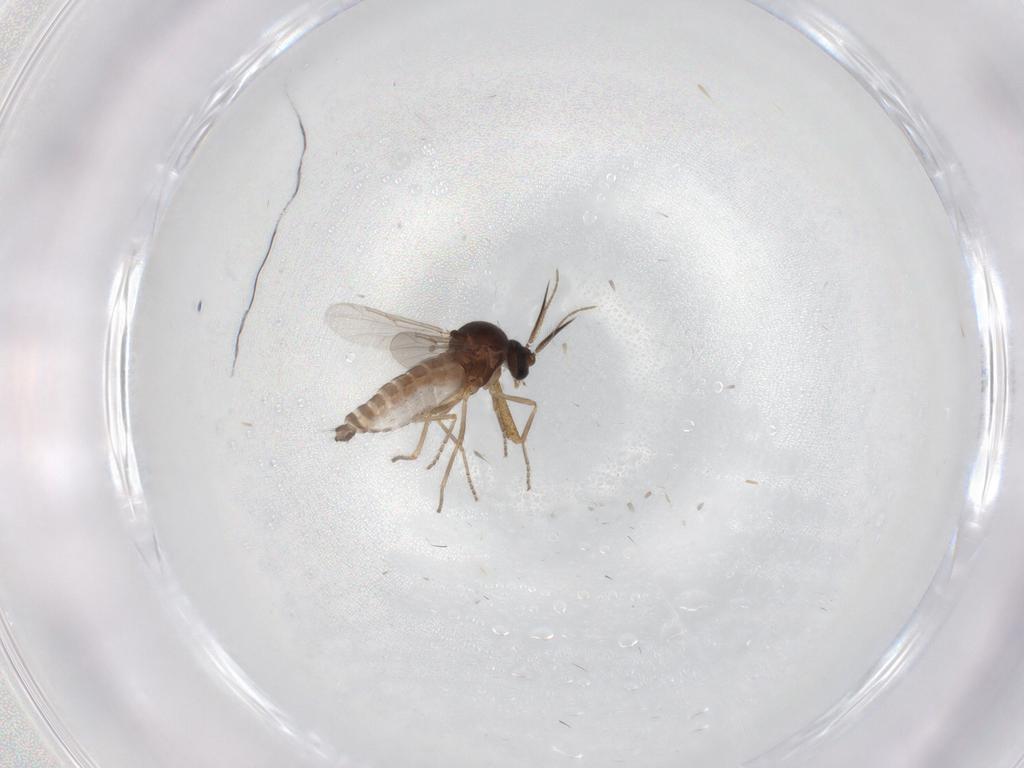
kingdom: Animalia
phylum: Arthropoda
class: Insecta
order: Diptera
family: Ceratopogonidae
